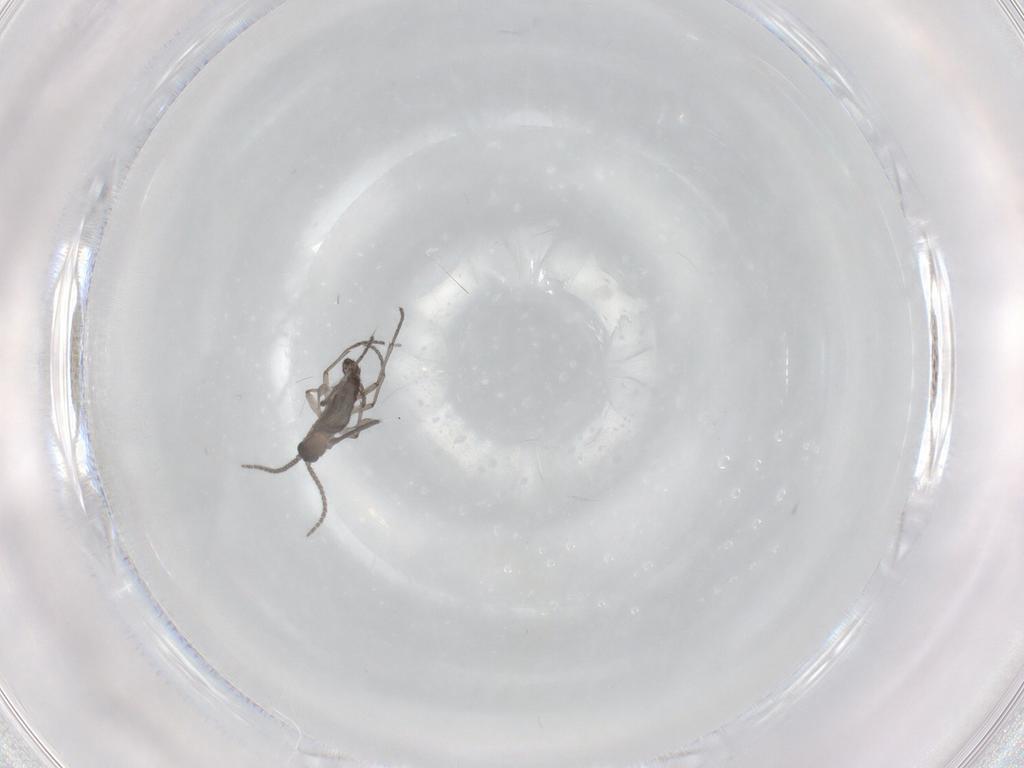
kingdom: Animalia
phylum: Arthropoda
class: Insecta
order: Diptera
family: Sciaridae
